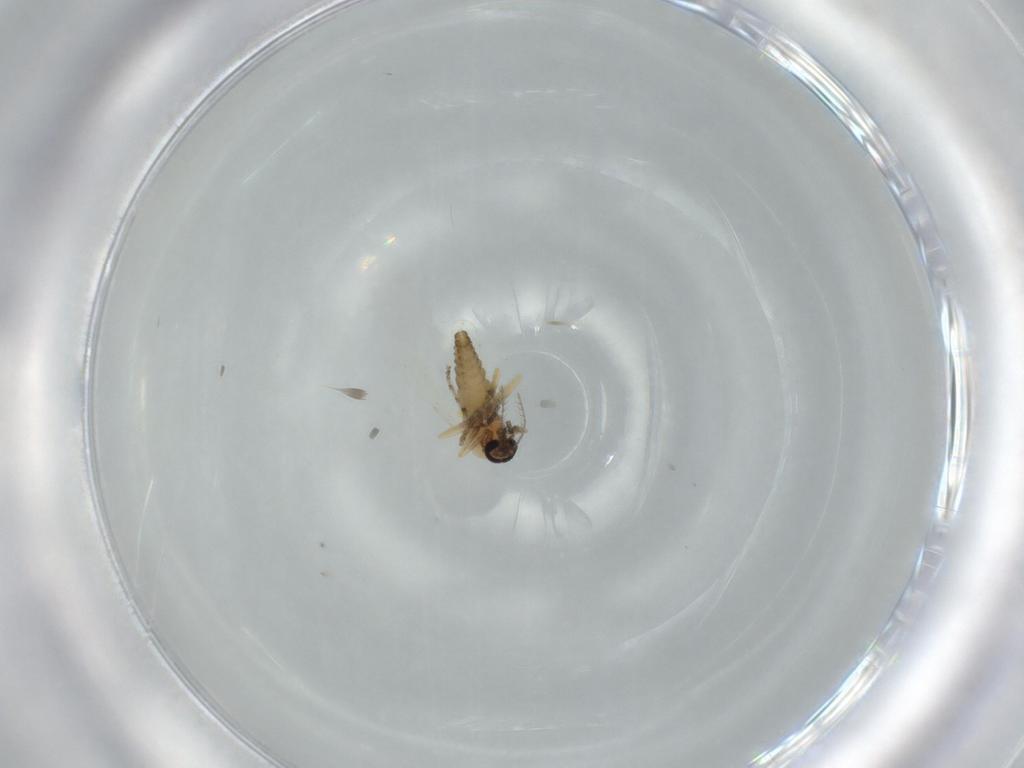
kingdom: Animalia
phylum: Arthropoda
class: Insecta
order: Diptera
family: Ceratopogonidae
